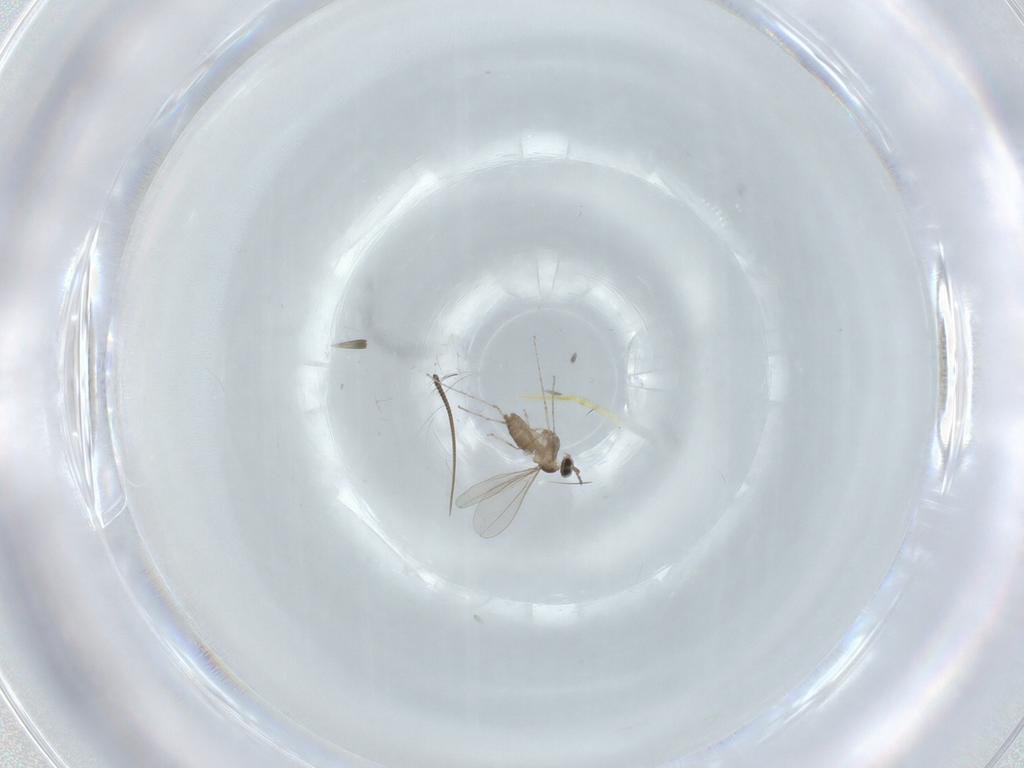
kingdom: Animalia
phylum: Arthropoda
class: Insecta
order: Diptera
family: Cecidomyiidae
